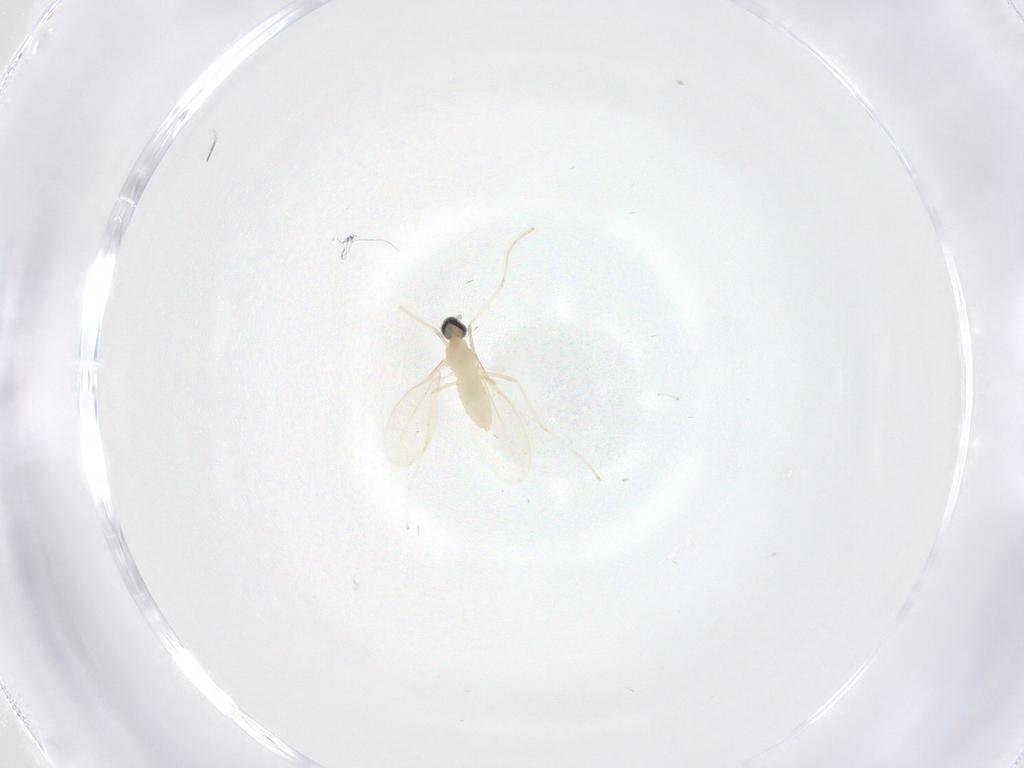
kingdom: Animalia
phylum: Arthropoda
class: Insecta
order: Diptera
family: Cecidomyiidae
